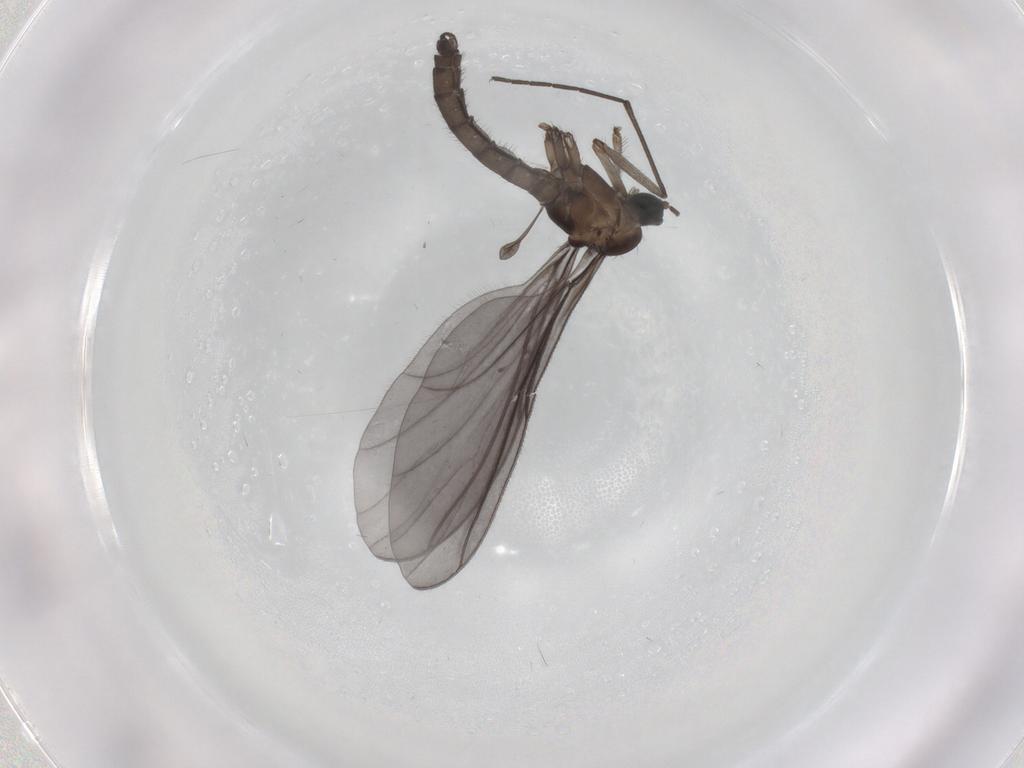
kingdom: Animalia
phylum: Arthropoda
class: Insecta
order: Diptera
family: Sciaridae
